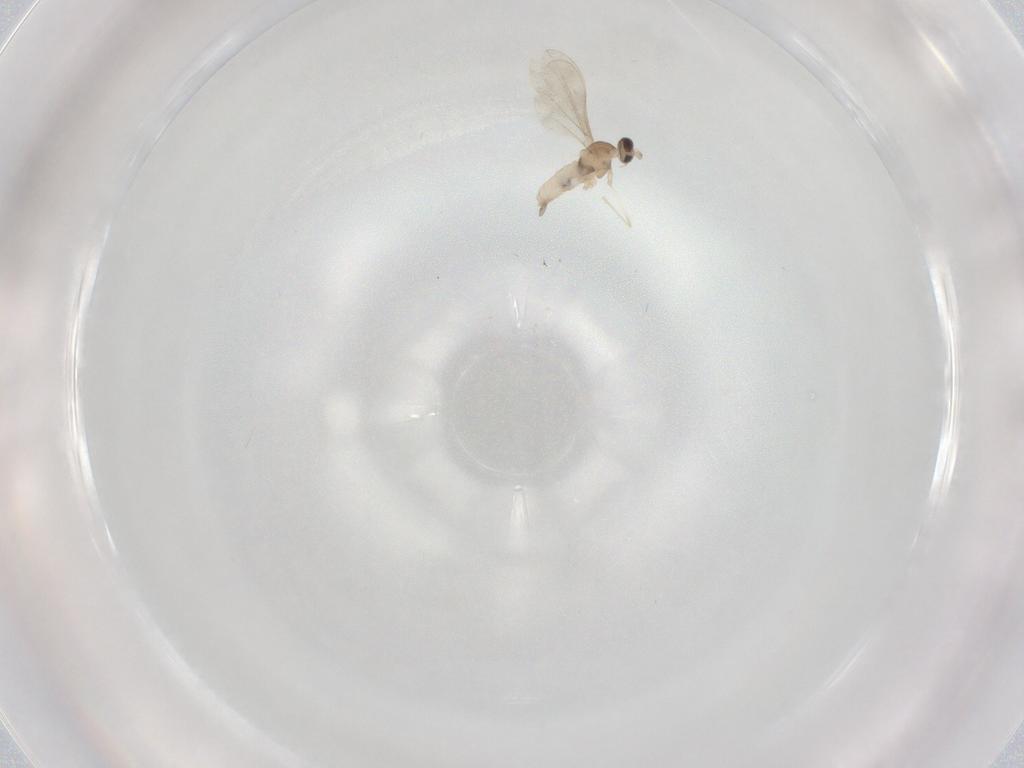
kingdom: Animalia
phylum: Arthropoda
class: Insecta
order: Diptera
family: Cecidomyiidae
